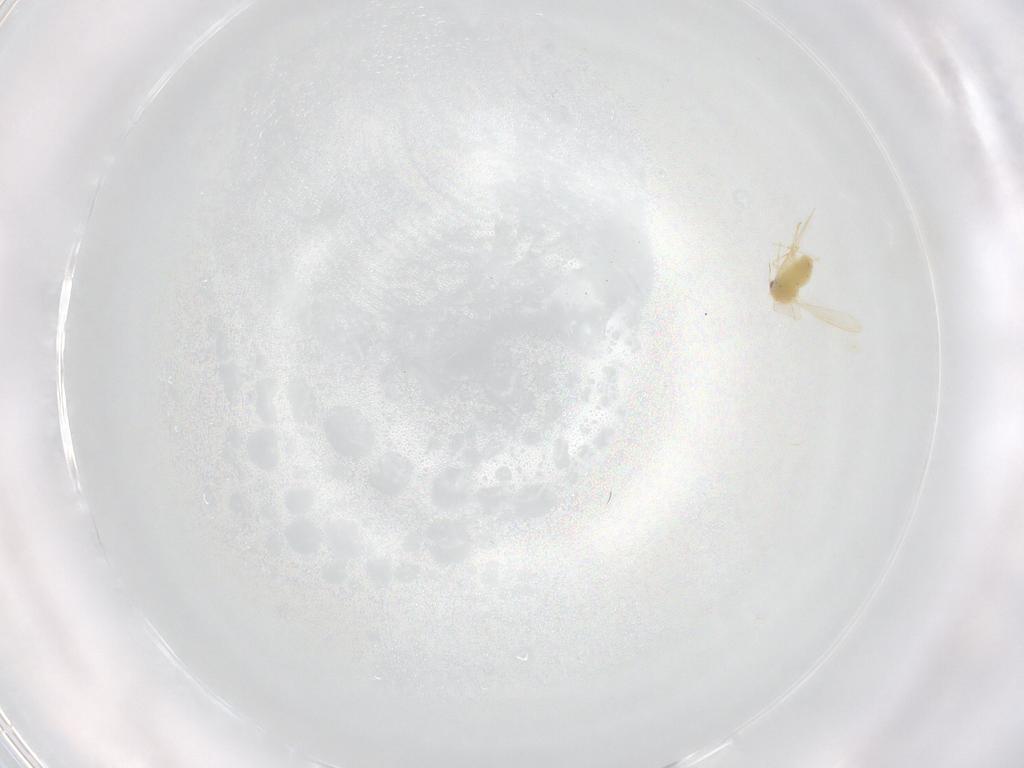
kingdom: Animalia
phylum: Arthropoda
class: Insecta
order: Hemiptera
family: Aleyrodidae
